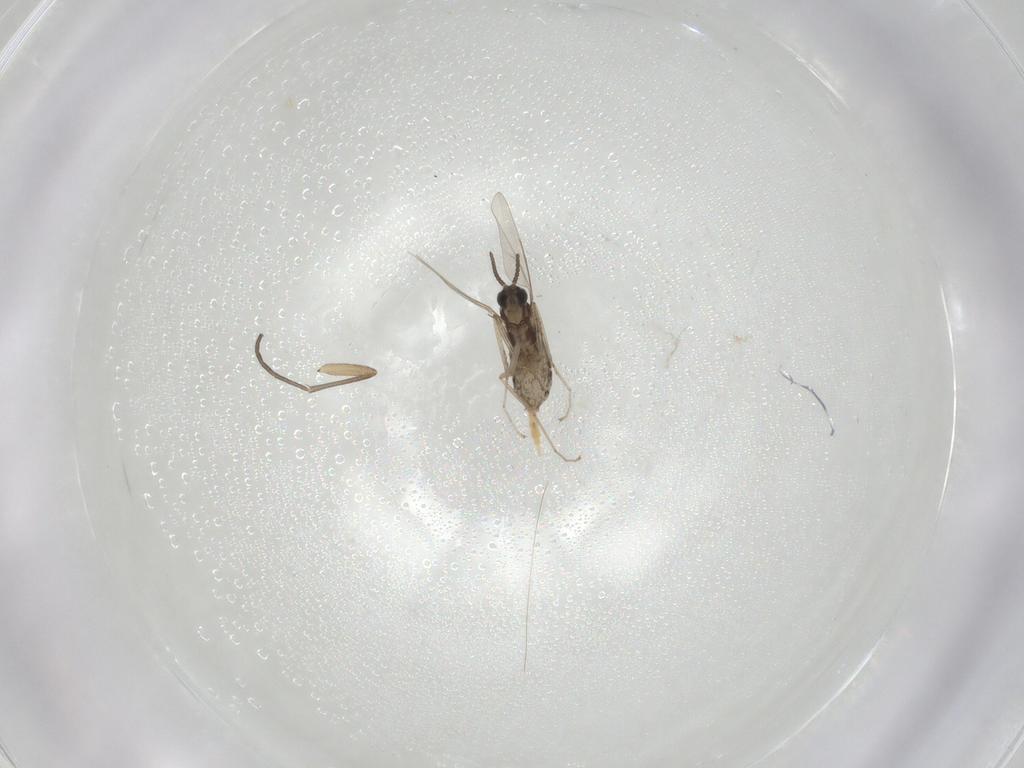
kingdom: Animalia
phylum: Arthropoda
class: Insecta
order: Diptera
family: Cecidomyiidae
